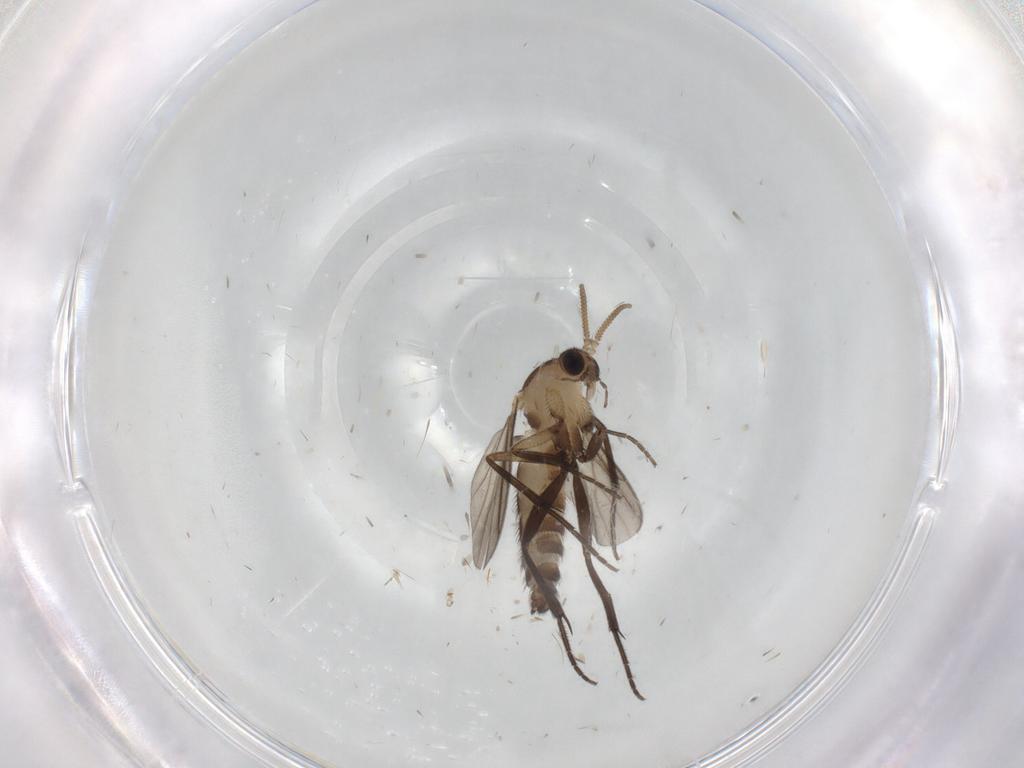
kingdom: Animalia
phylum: Arthropoda
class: Insecta
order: Diptera
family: Mycetophilidae
